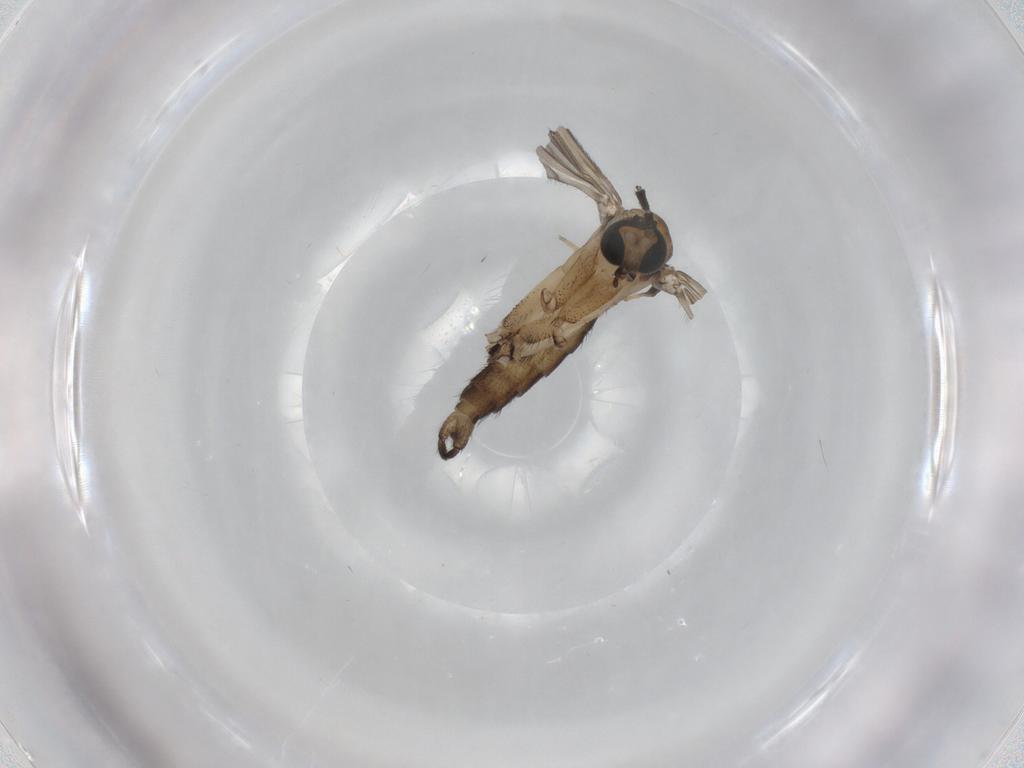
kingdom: Animalia
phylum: Arthropoda
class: Insecta
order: Diptera
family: Sciaridae
